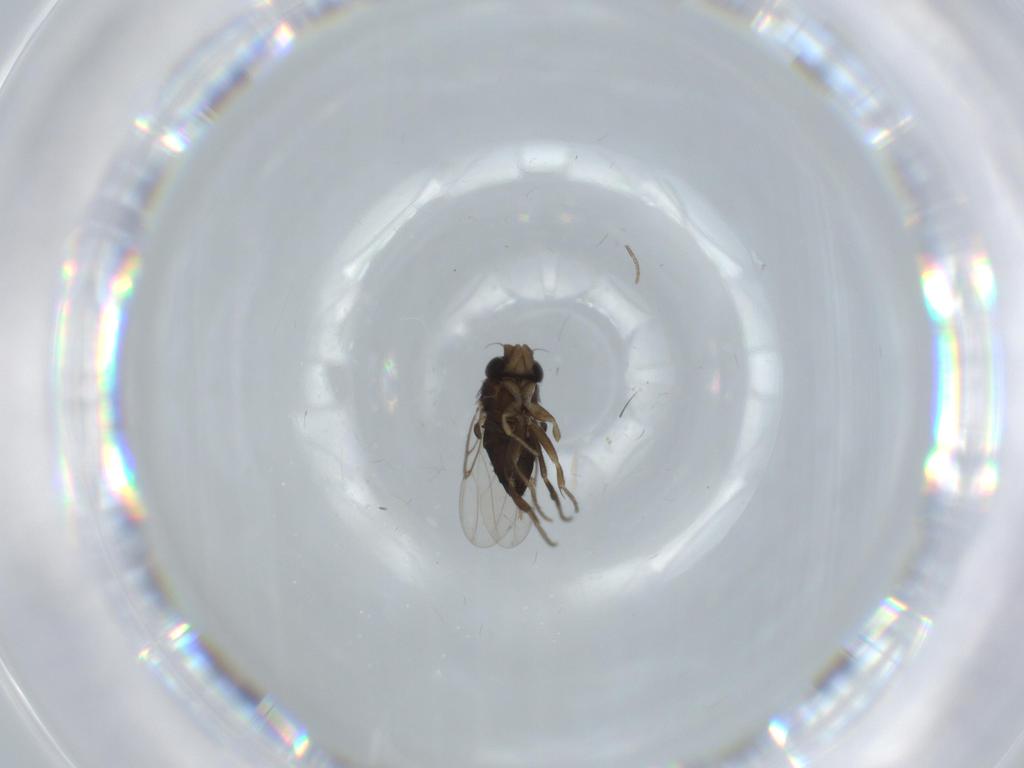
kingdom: Animalia
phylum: Arthropoda
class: Insecta
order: Diptera
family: Phoridae
